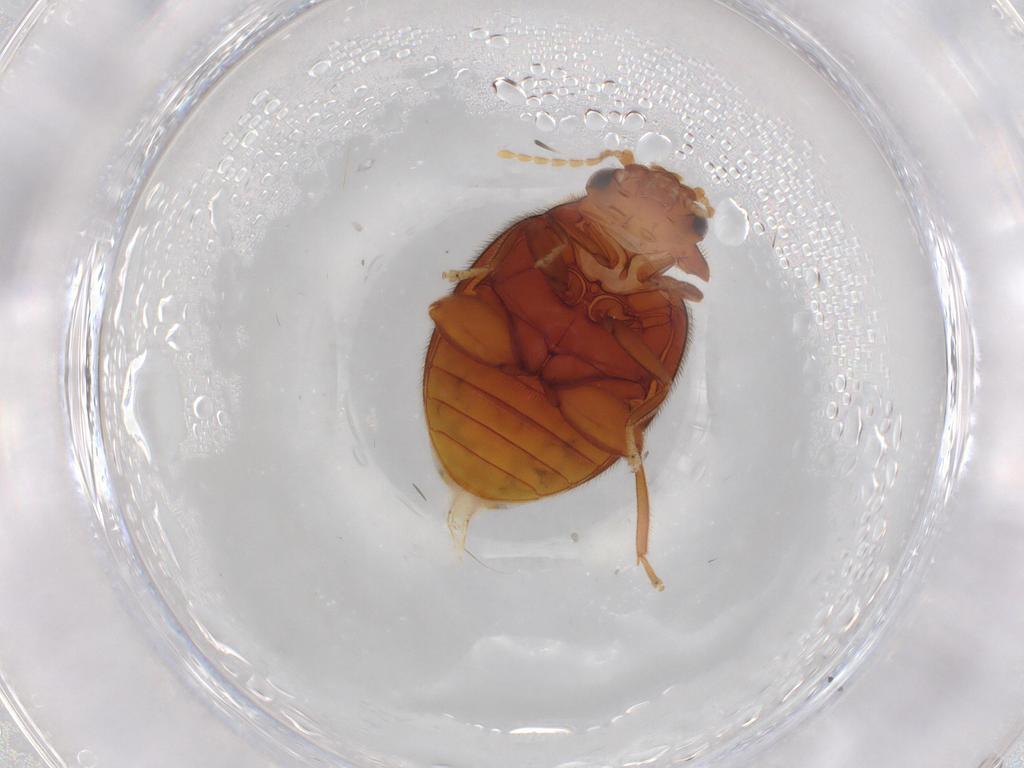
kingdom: Animalia
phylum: Arthropoda
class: Insecta
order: Coleoptera
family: Scirtidae
